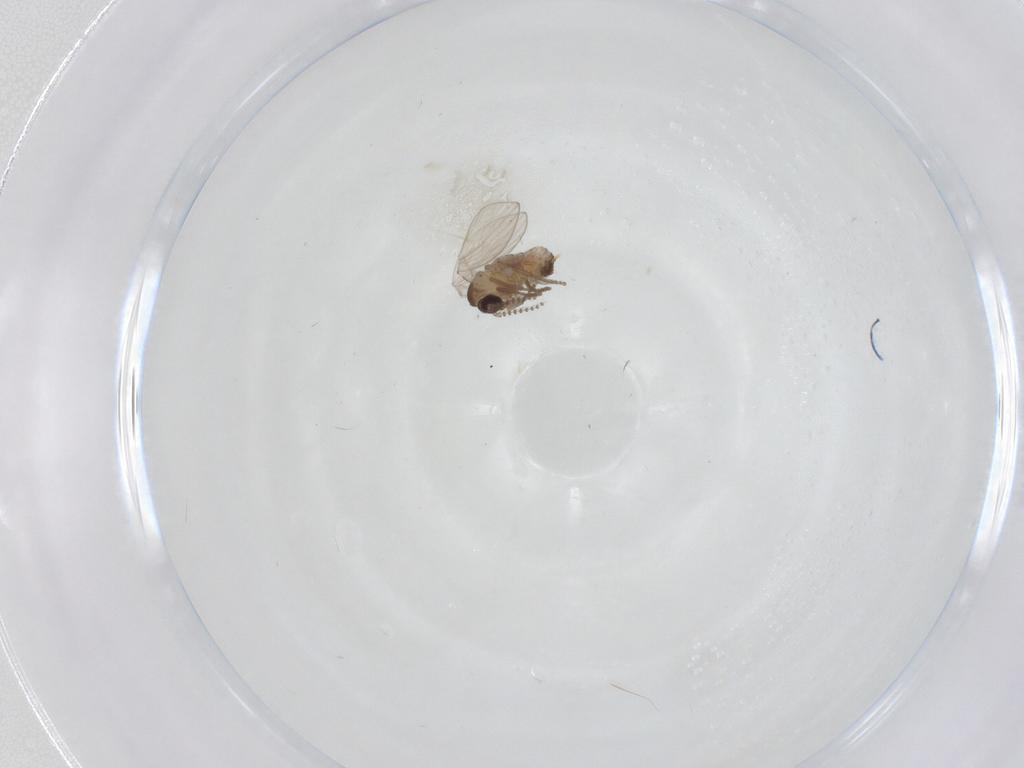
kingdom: Animalia
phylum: Arthropoda
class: Insecta
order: Diptera
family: Psychodidae
